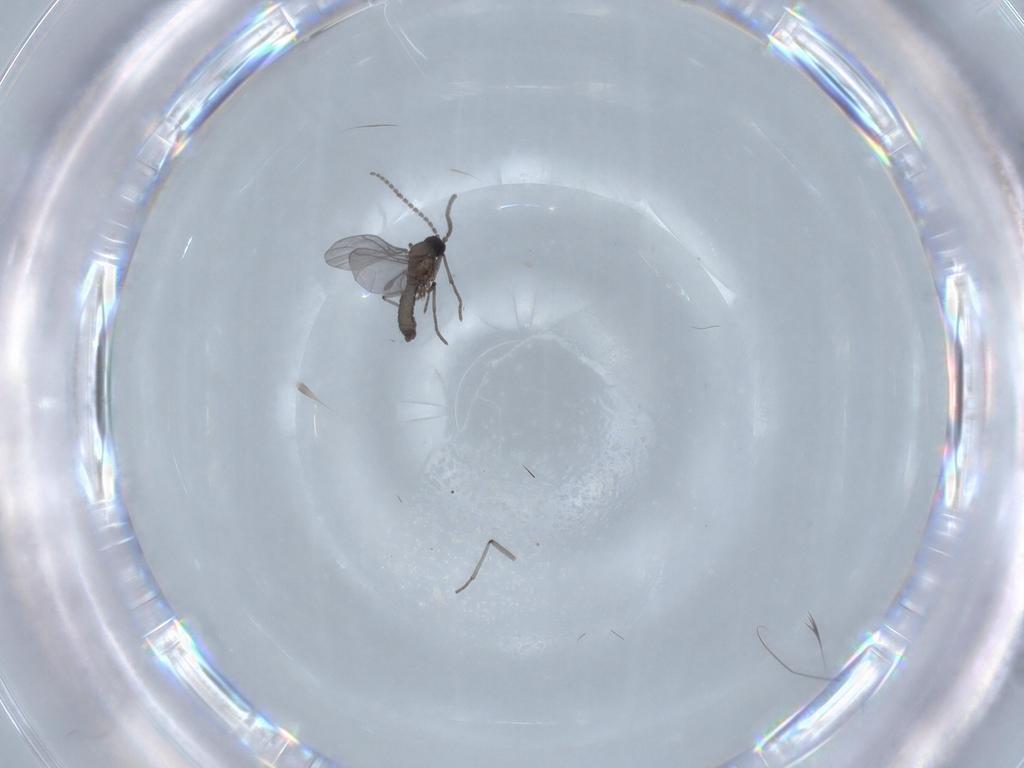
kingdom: Animalia
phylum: Arthropoda
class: Insecta
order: Diptera
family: Sciaridae
